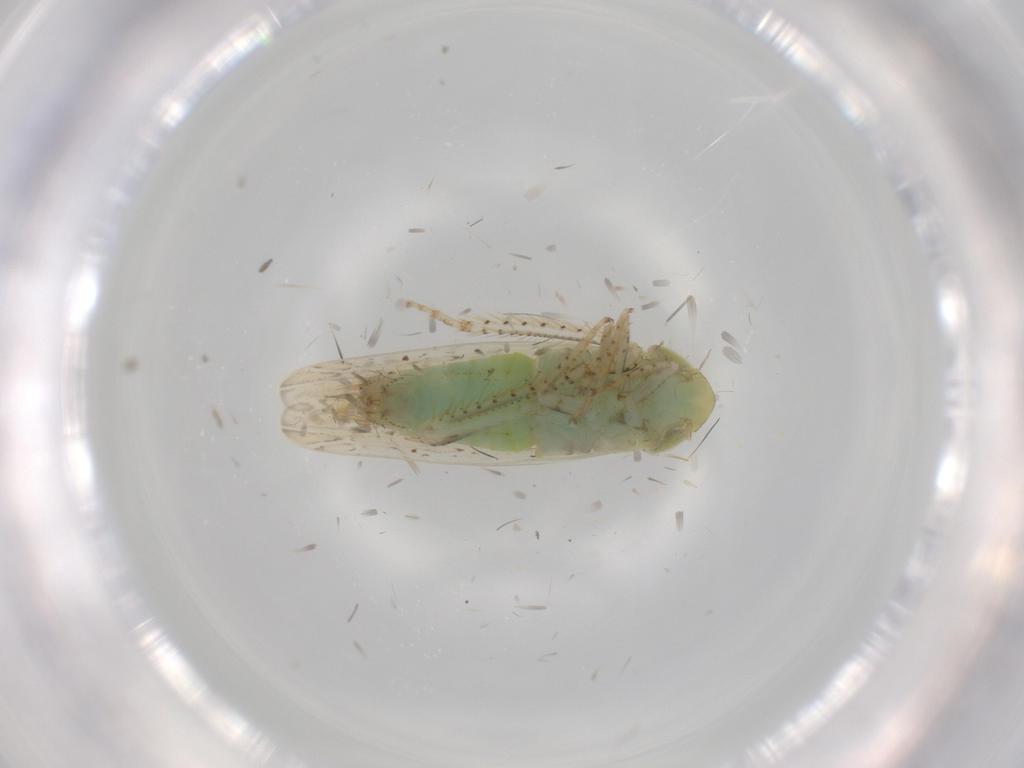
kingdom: Animalia
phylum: Arthropoda
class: Insecta
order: Hemiptera
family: Cicadellidae
